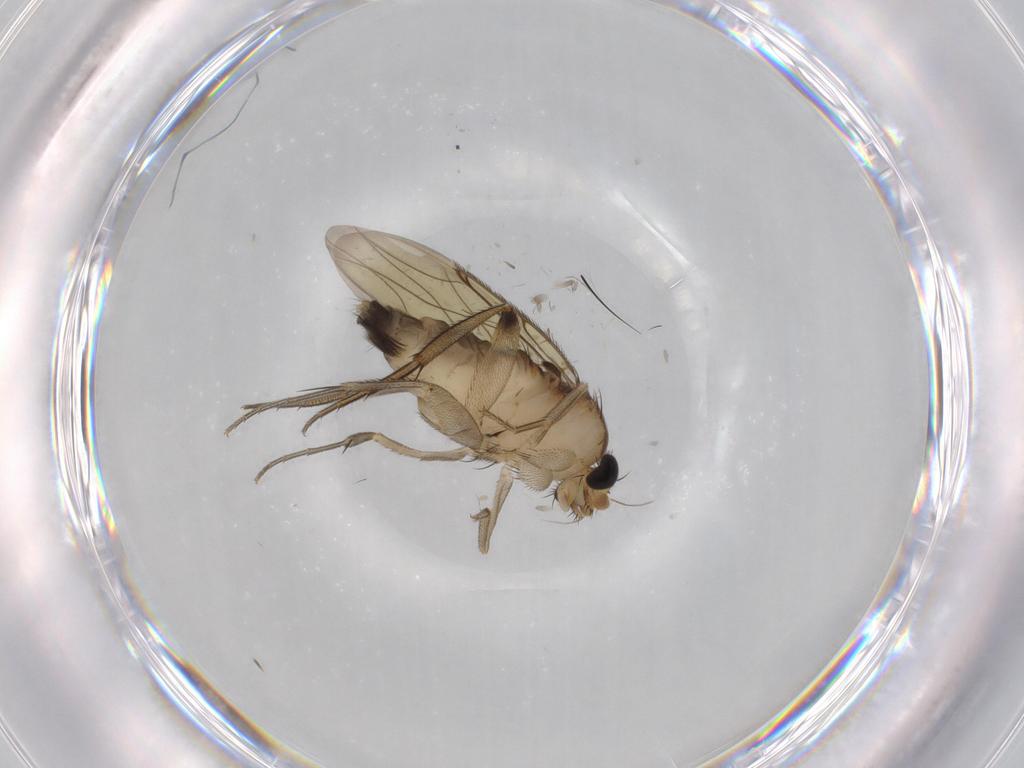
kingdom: Animalia
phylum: Arthropoda
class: Insecta
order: Diptera
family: Phoridae
